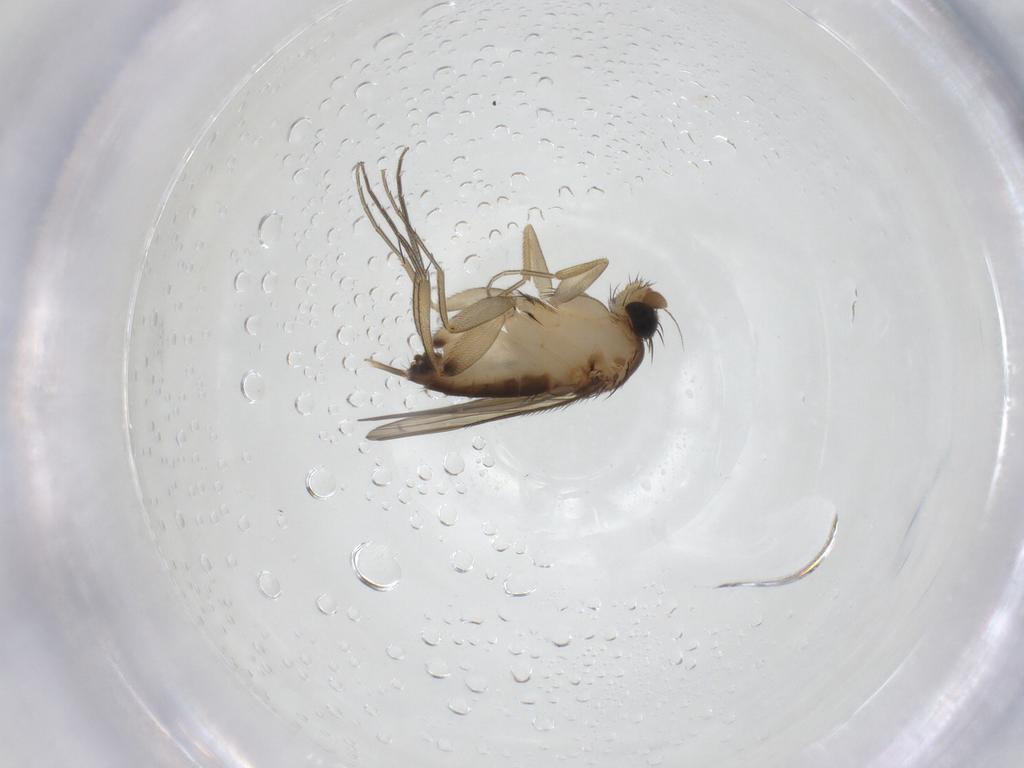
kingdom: Animalia
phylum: Arthropoda
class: Insecta
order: Diptera
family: Phoridae
